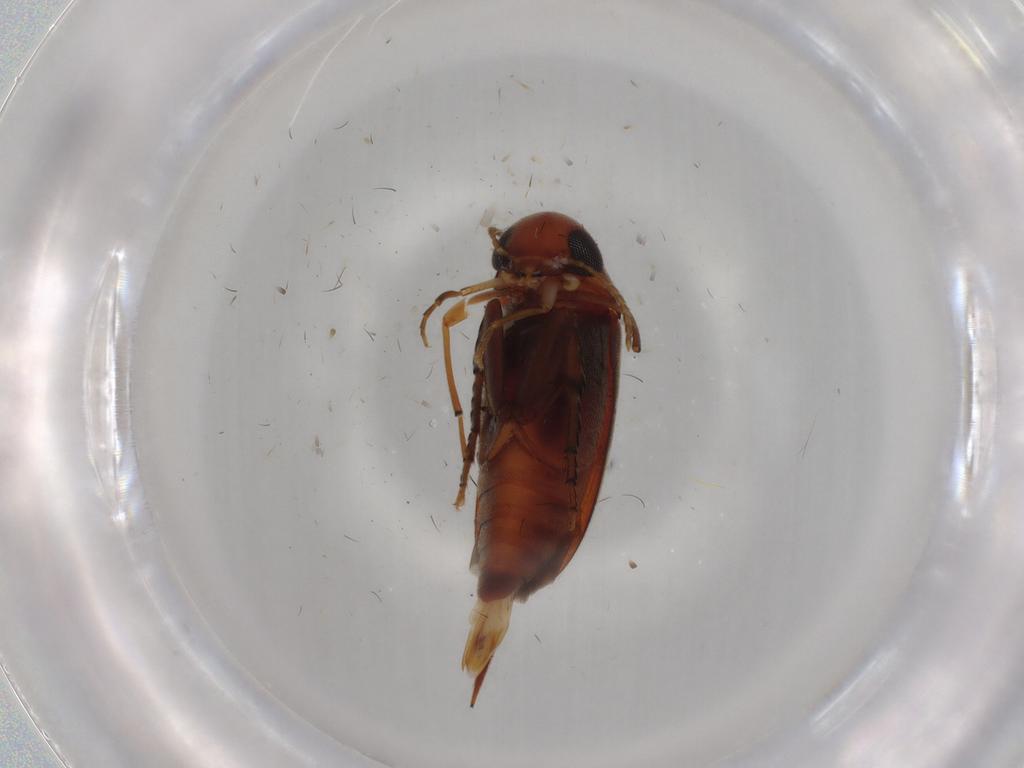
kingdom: Animalia
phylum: Arthropoda
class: Insecta
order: Coleoptera
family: Mordellidae
